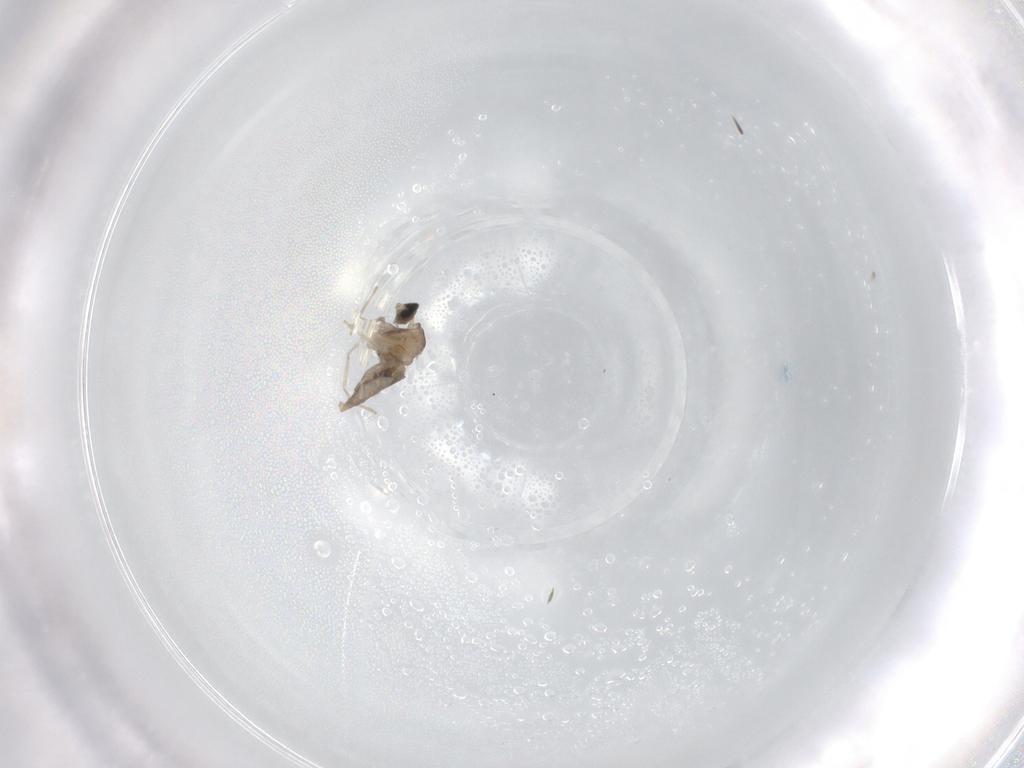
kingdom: Animalia
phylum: Arthropoda
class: Insecta
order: Diptera
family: Cecidomyiidae
